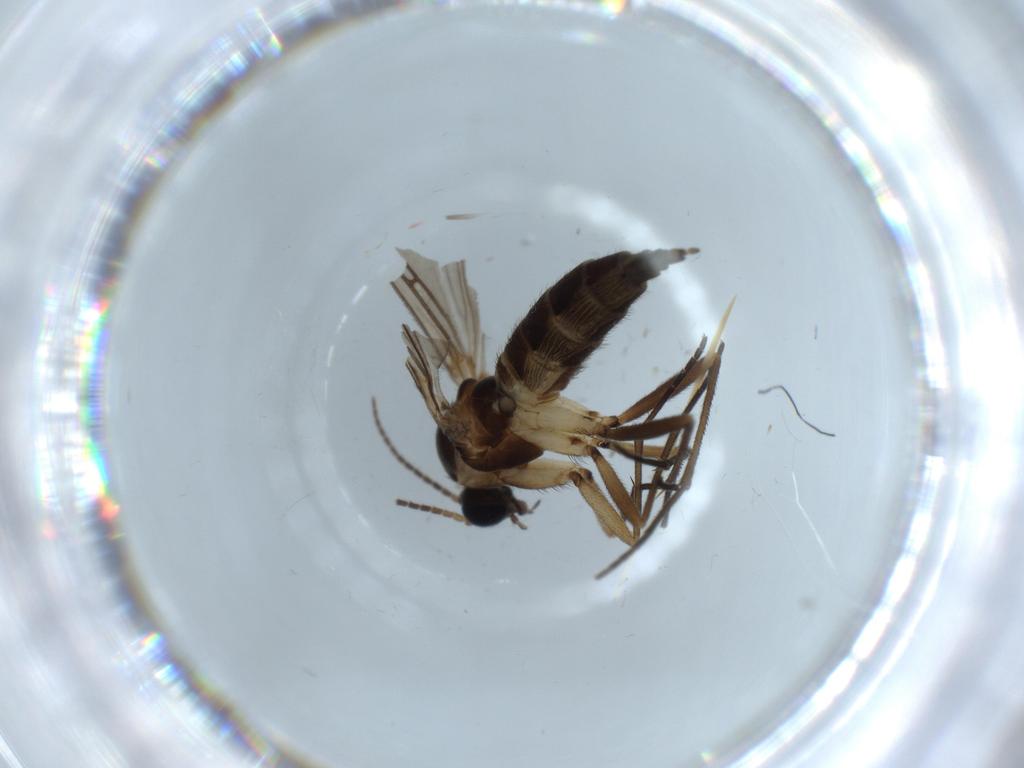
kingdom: Animalia
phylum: Arthropoda
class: Insecta
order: Diptera
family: Sciaridae
